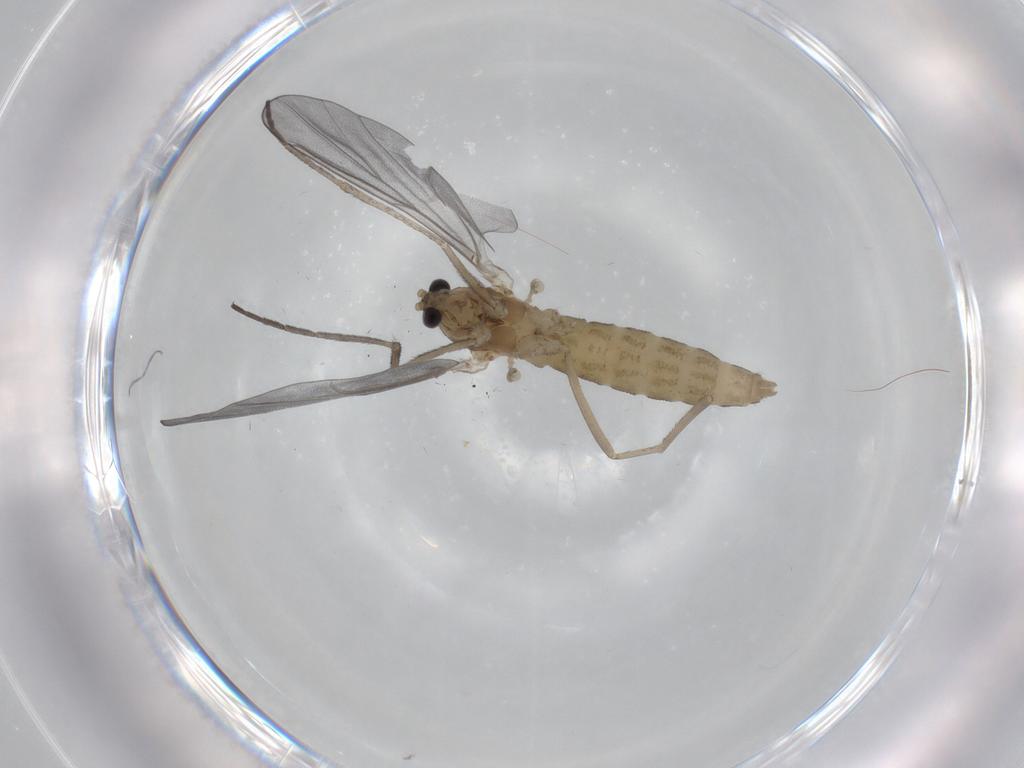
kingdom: Animalia
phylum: Arthropoda
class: Insecta
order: Diptera
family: Cecidomyiidae
